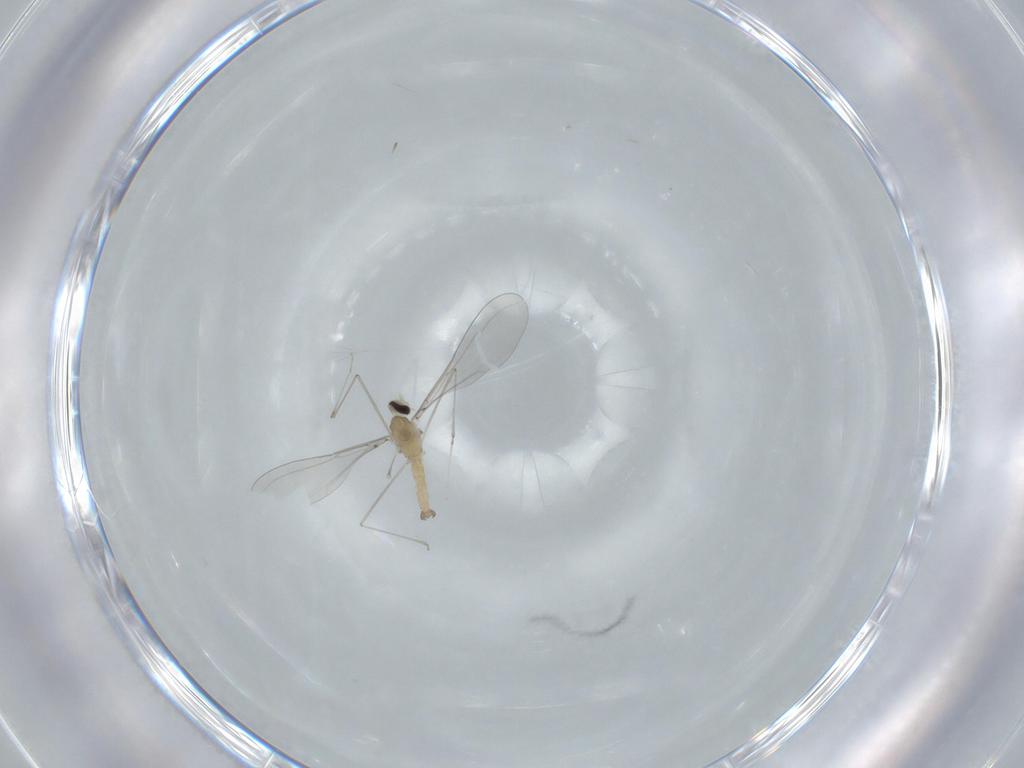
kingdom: Animalia
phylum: Arthropoda
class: Insecta
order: Diptera
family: Cecidomyiidae
